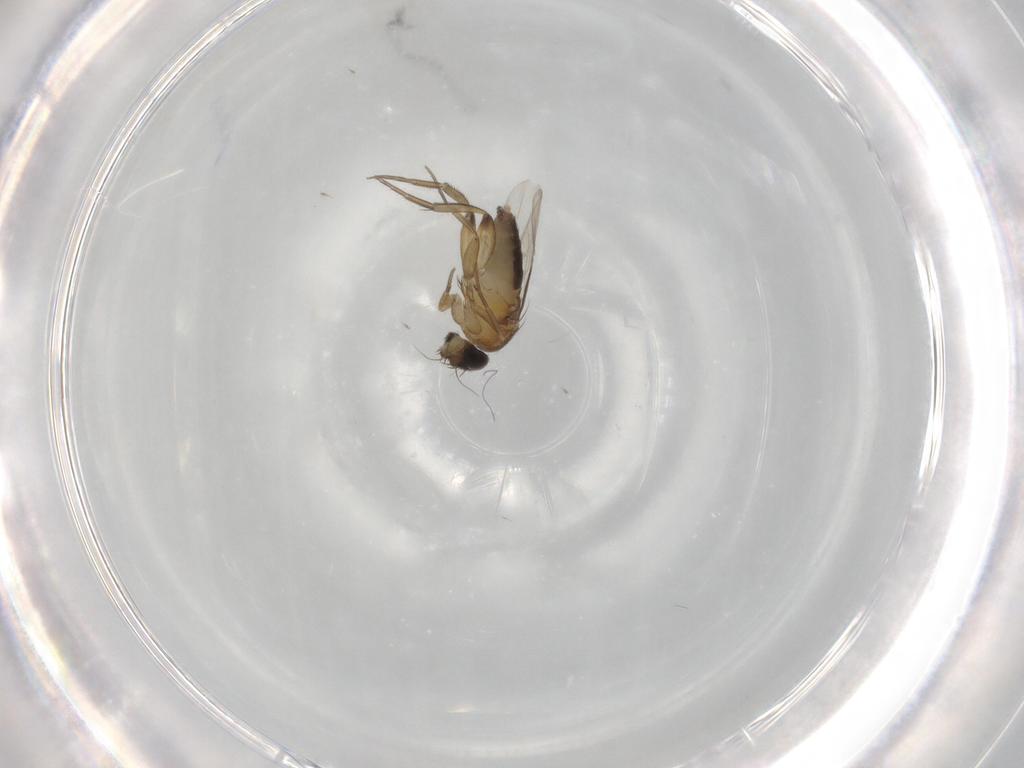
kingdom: Animalia
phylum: Arthropoda
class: Insecta
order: Diptera
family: Phoridae
